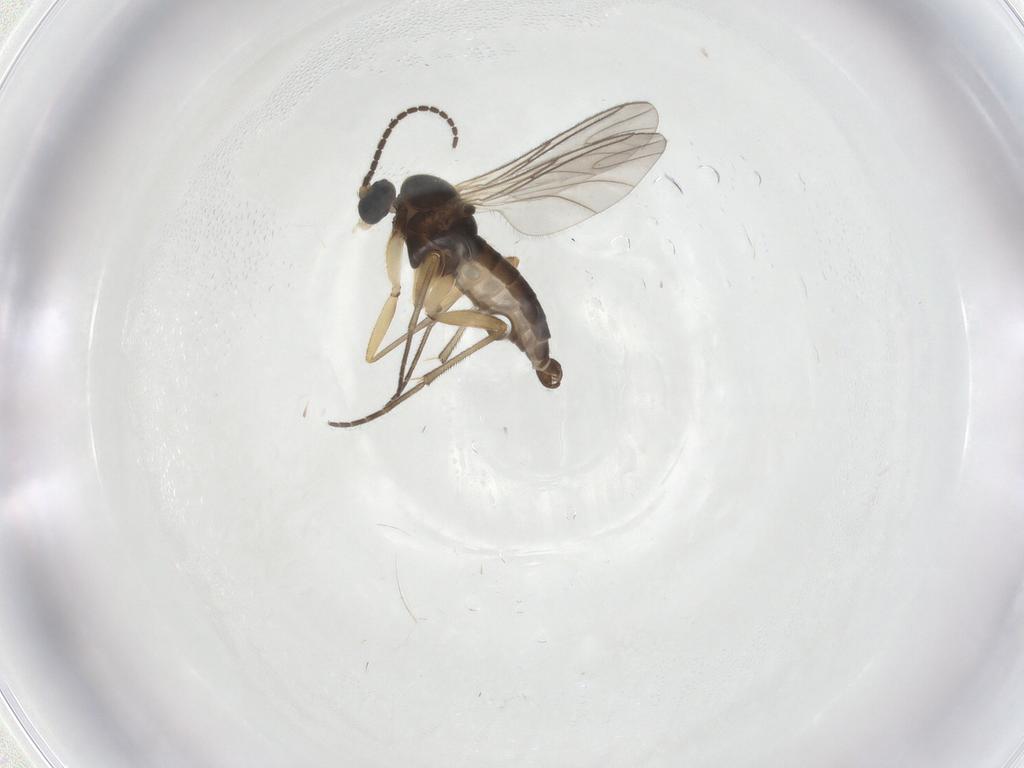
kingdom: Animalia
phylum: Arthropoda
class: Insecta
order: Diptera
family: Sciaridae
